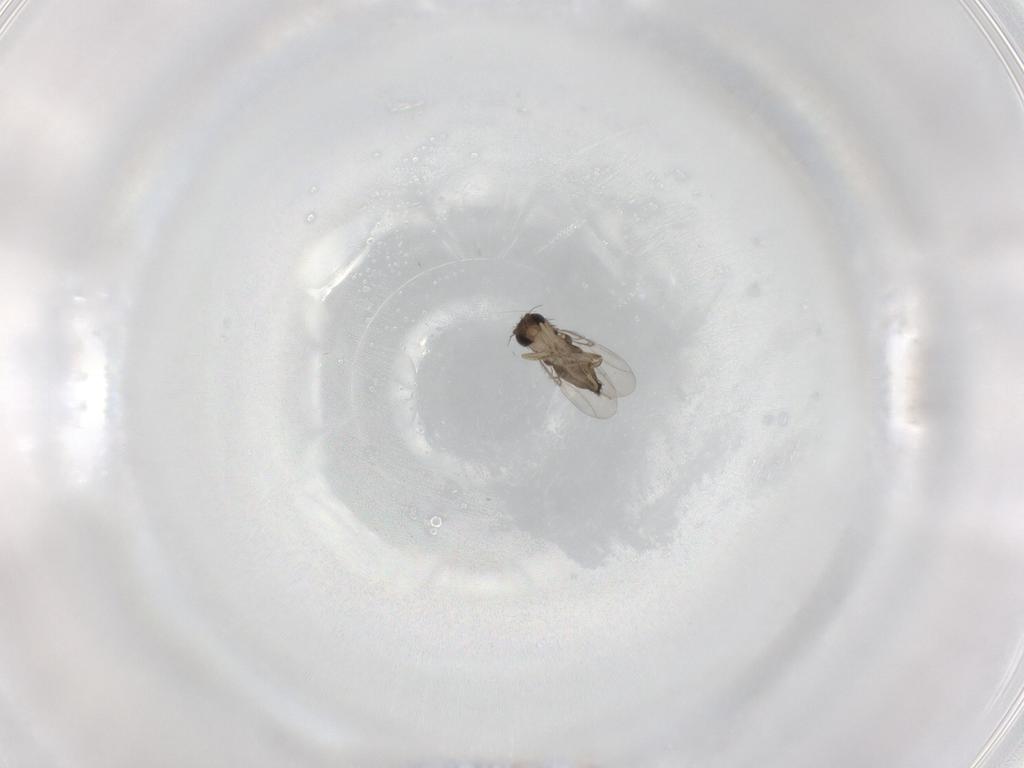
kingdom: Animalia
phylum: Arthropoda
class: Insecta
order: Diptera
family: Phoridae
